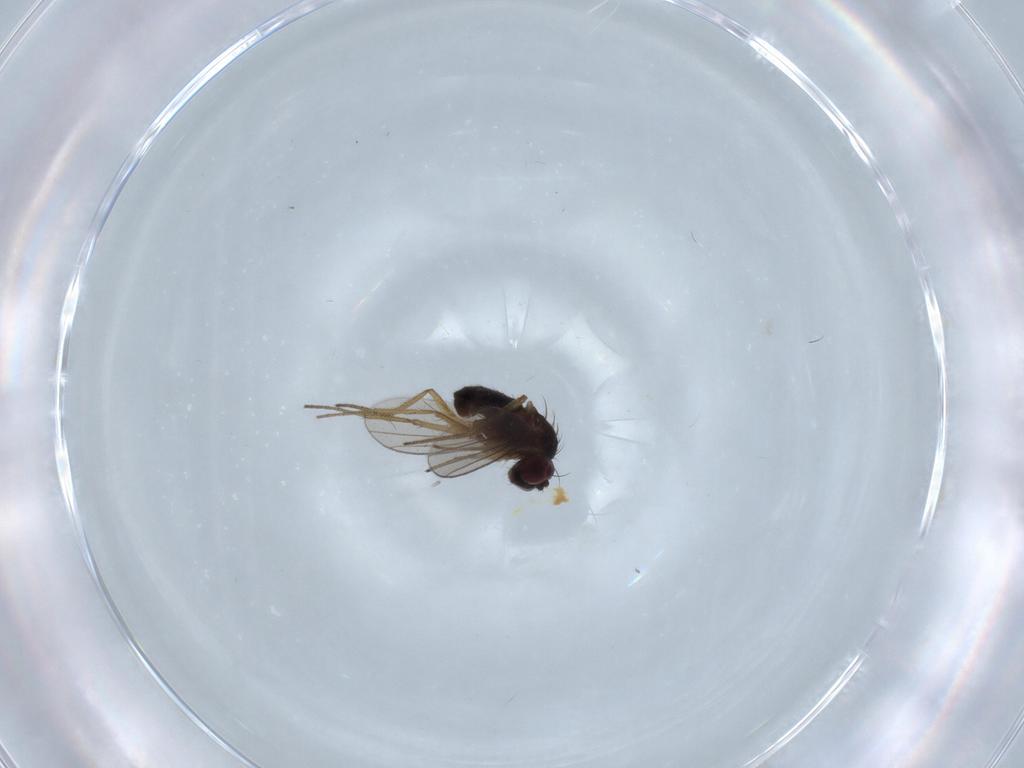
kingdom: Animalia
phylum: Arthropoda
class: Insecta
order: Diptera
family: Dolichopodidae
